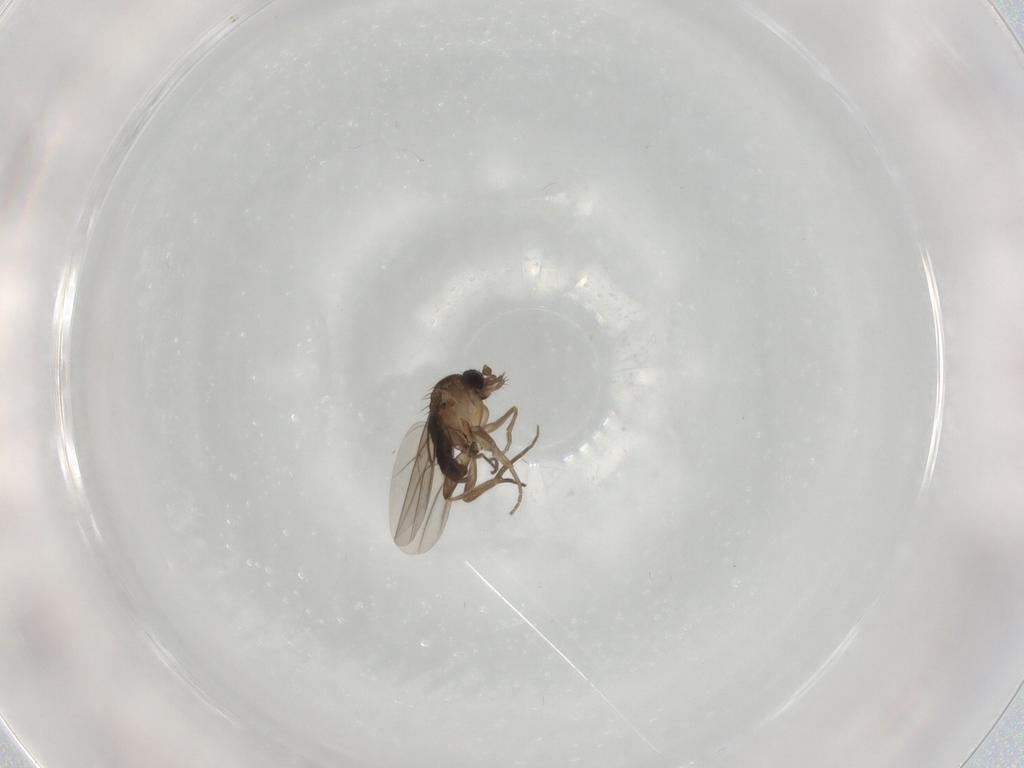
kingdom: Animalia
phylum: Arthropoda
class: Insecta
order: Diptera
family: Phoridae
